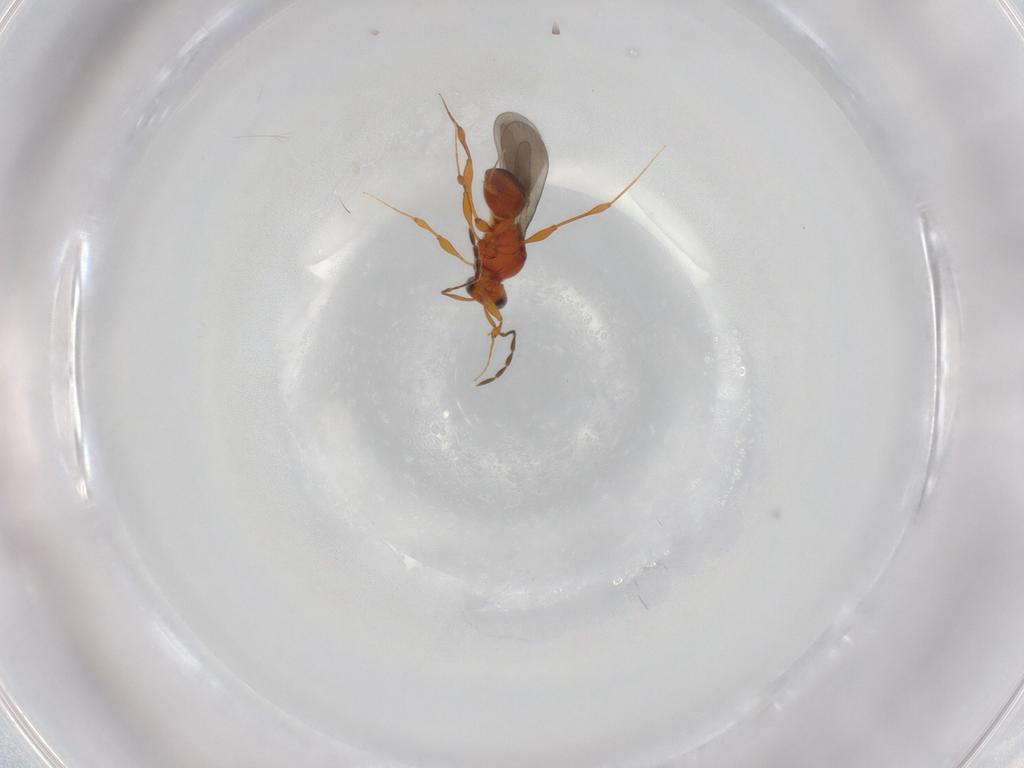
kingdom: Animalia
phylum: Arthropoda
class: Insecta
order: Hymenoptera
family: Platygastridae
